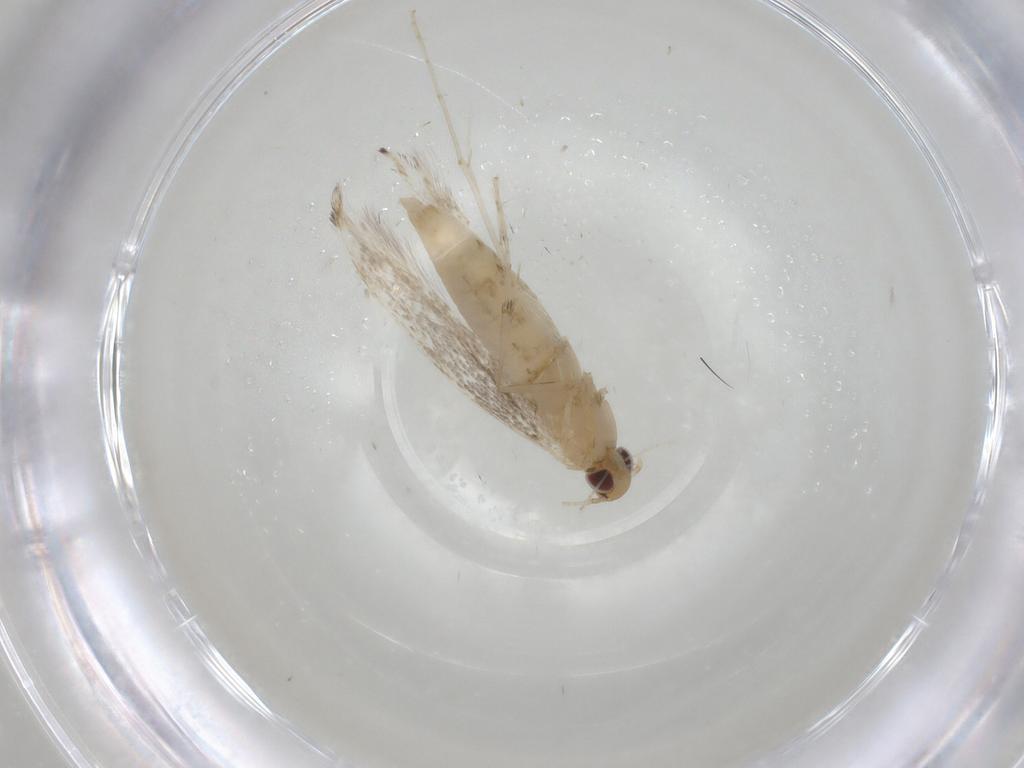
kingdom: Animalia
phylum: Arthropoda
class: Insecta
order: Lepidoptera
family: Gracillariidae
